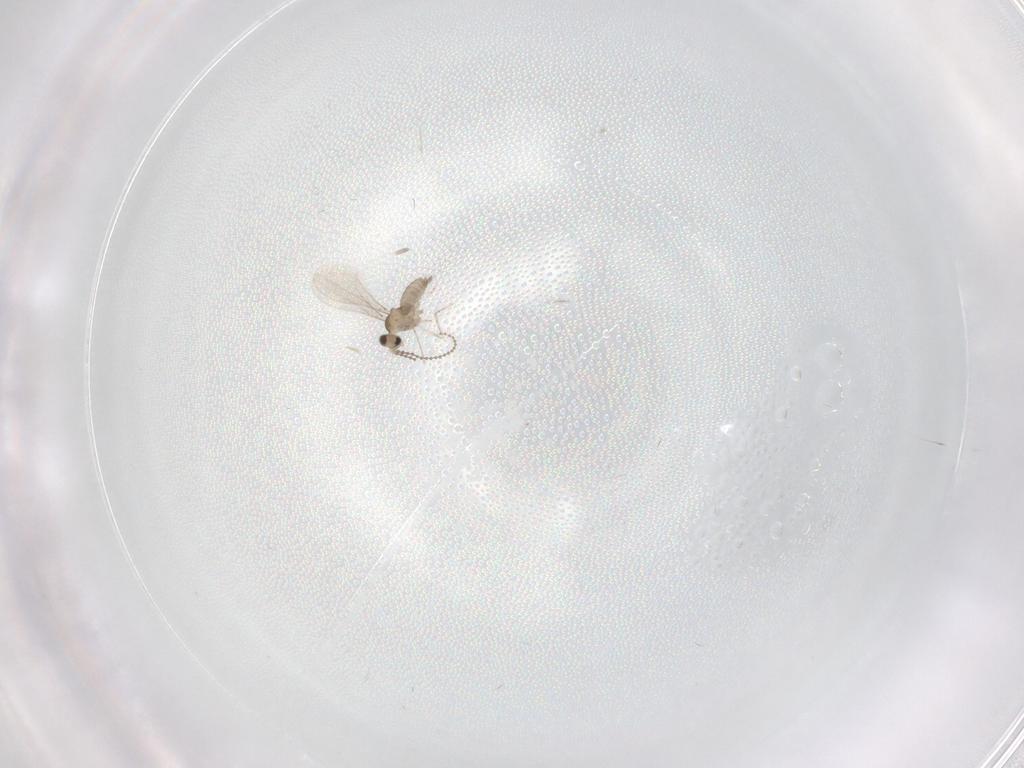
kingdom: Animalia
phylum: Arthropoda
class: Insecta
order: Diptera
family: Psychodidae
